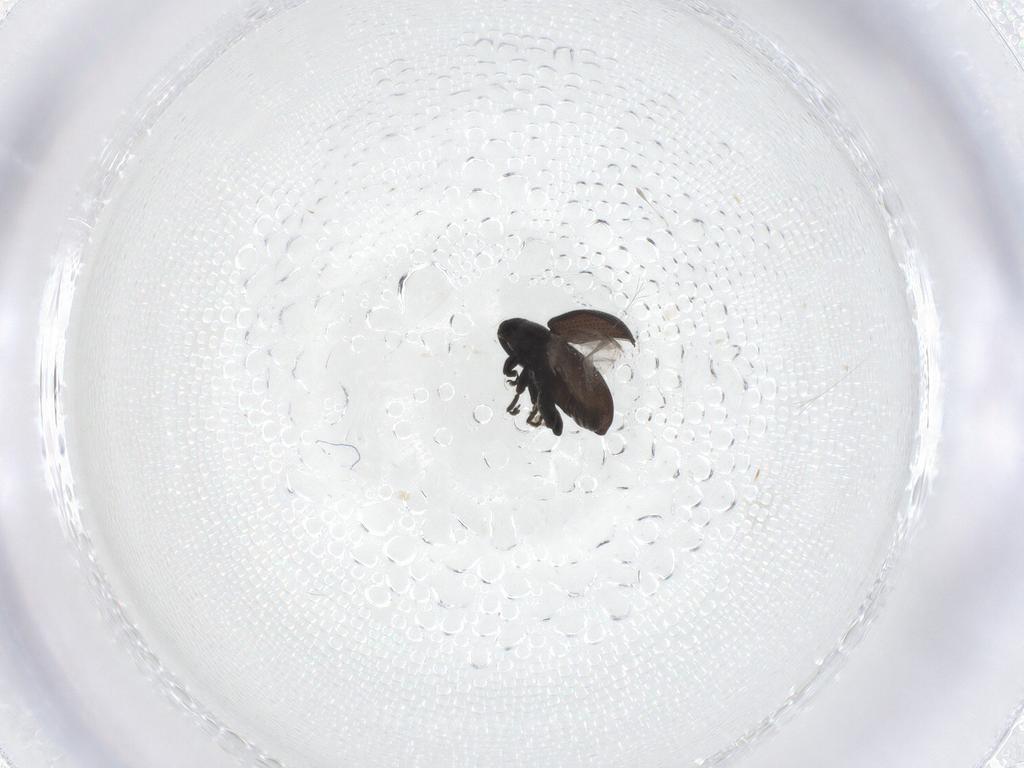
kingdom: Animalia
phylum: Arthropoda
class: Insecta
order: Coleoptera
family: Curculionidae
